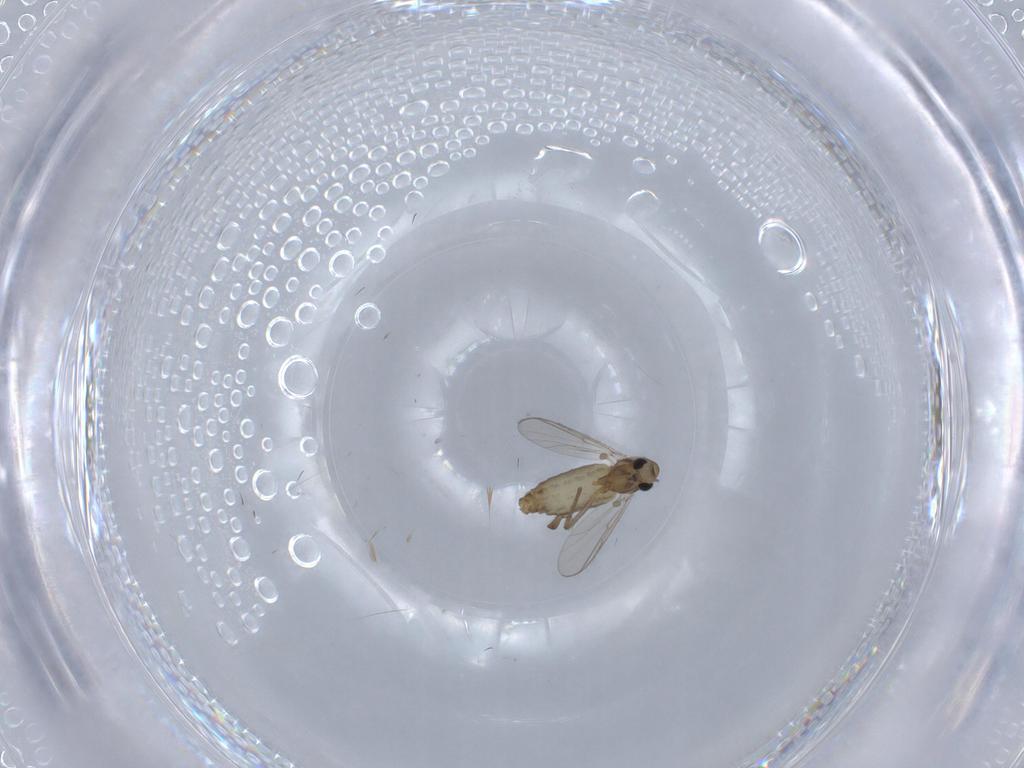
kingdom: Animalia
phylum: Arthropoda
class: Insecta
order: Diptera
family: Chironomidae
